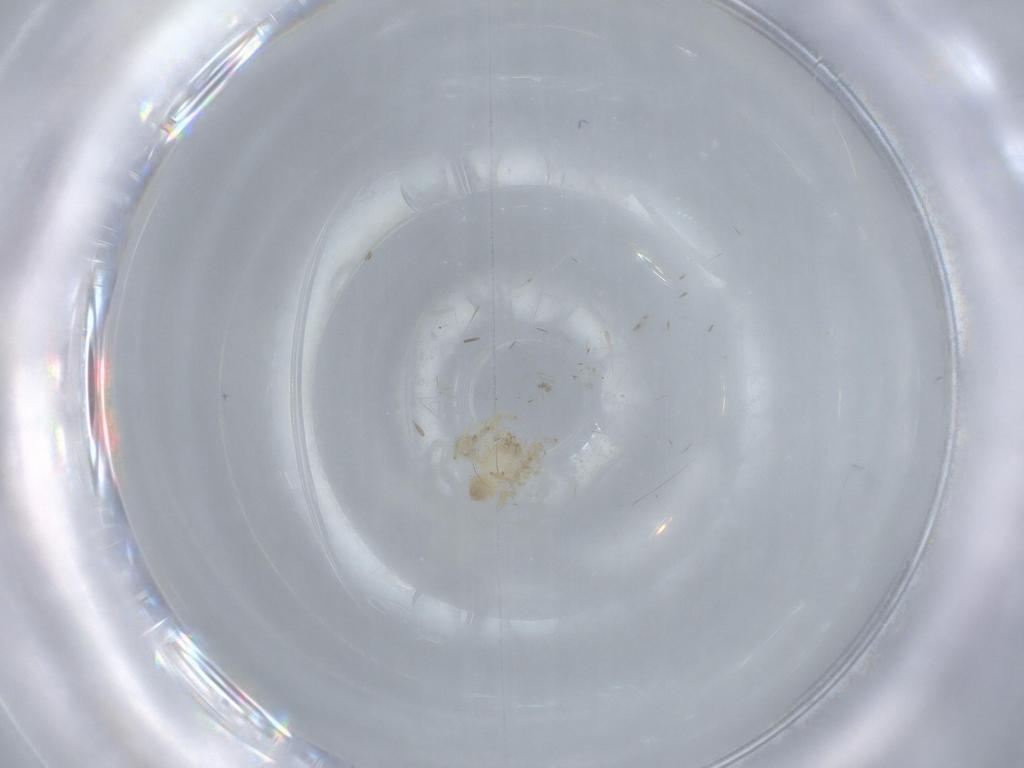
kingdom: Animalia
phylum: Arthropoda
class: Arachnida
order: Araneae
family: Oonopidae
